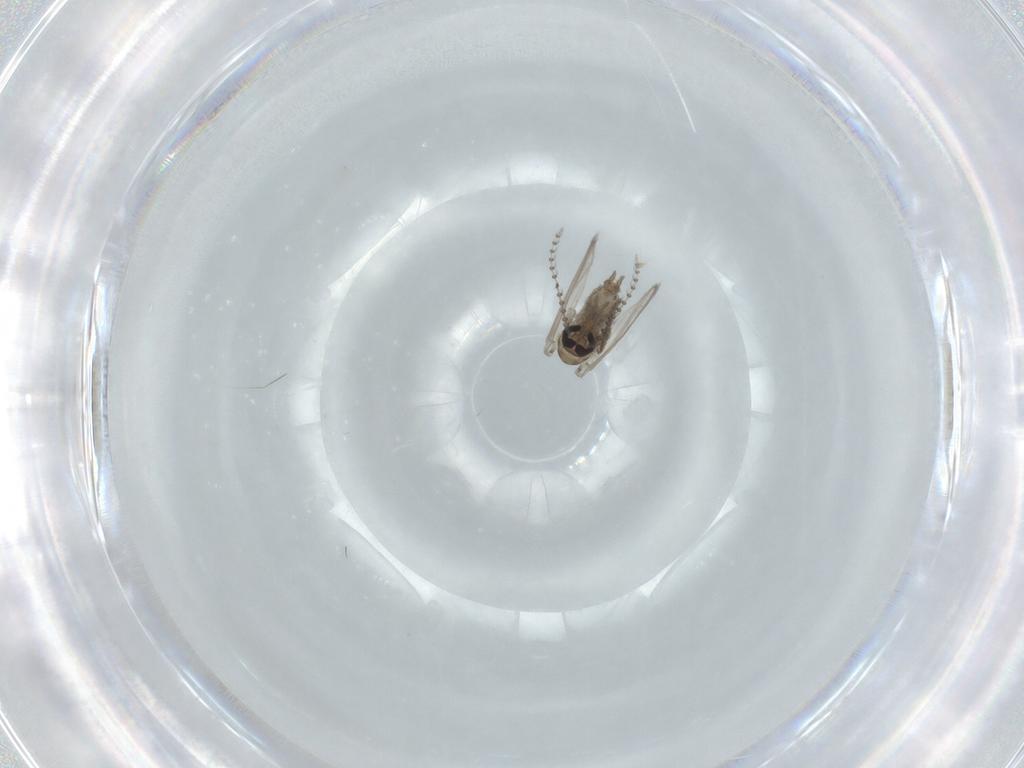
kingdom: Animalia
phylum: Arthropoda
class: Insecta
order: Diptera
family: Psychodidae
